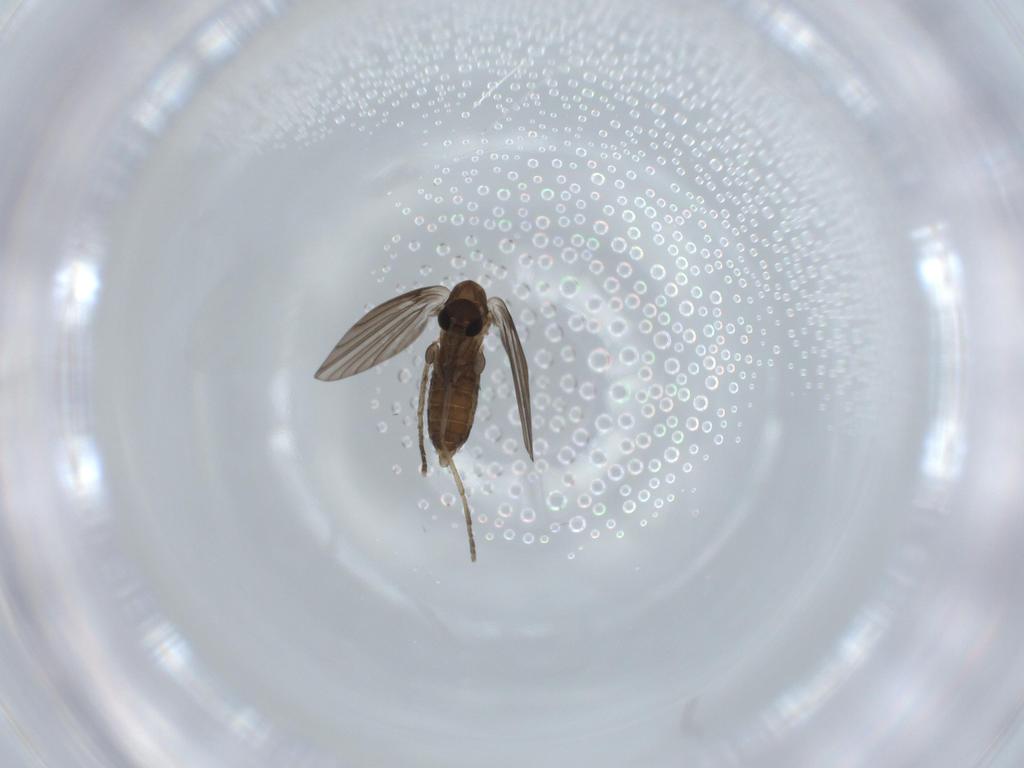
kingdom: Animalia
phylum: Arthropoda
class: Insecta
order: Diptera
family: Psychodidae
